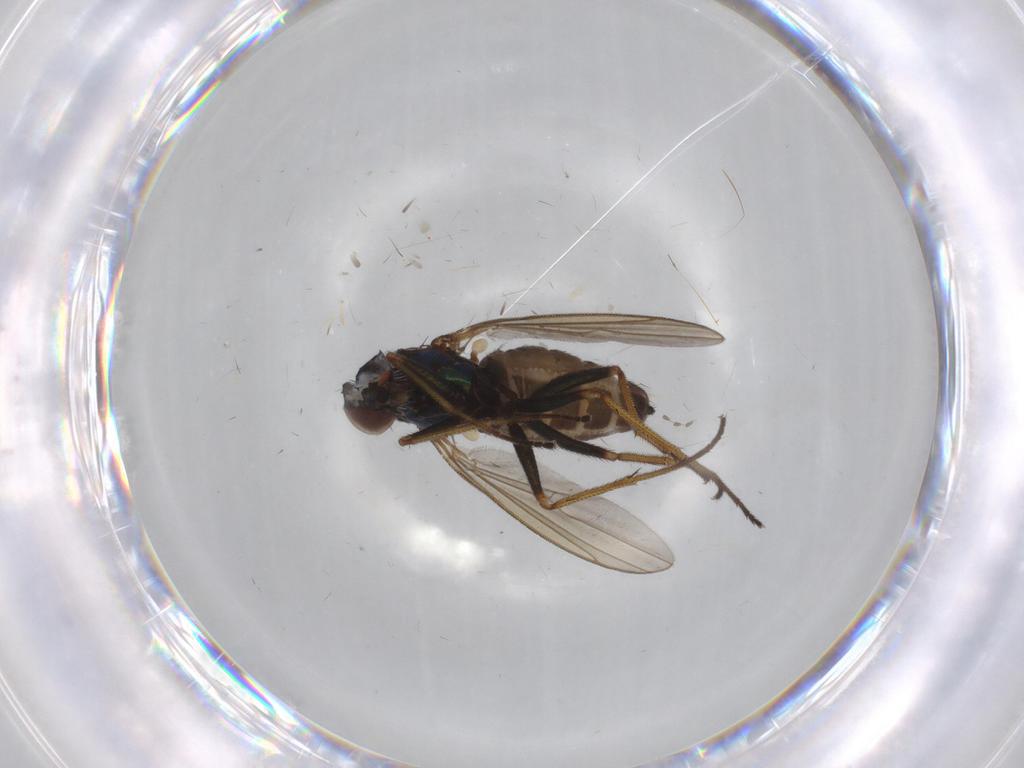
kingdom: Animalia
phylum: Arthropoda
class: Insecta
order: Diptera
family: Dolichopodidae
